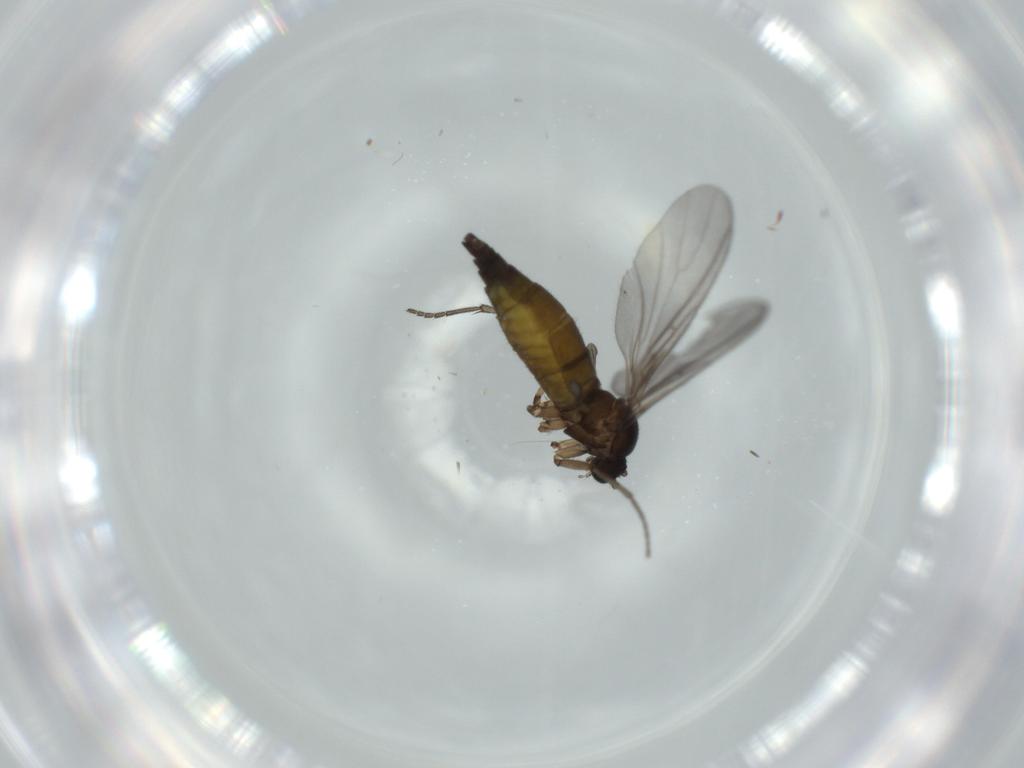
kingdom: Animalia
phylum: Arthropoda
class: Insecta
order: Diptera
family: Sciaridae
